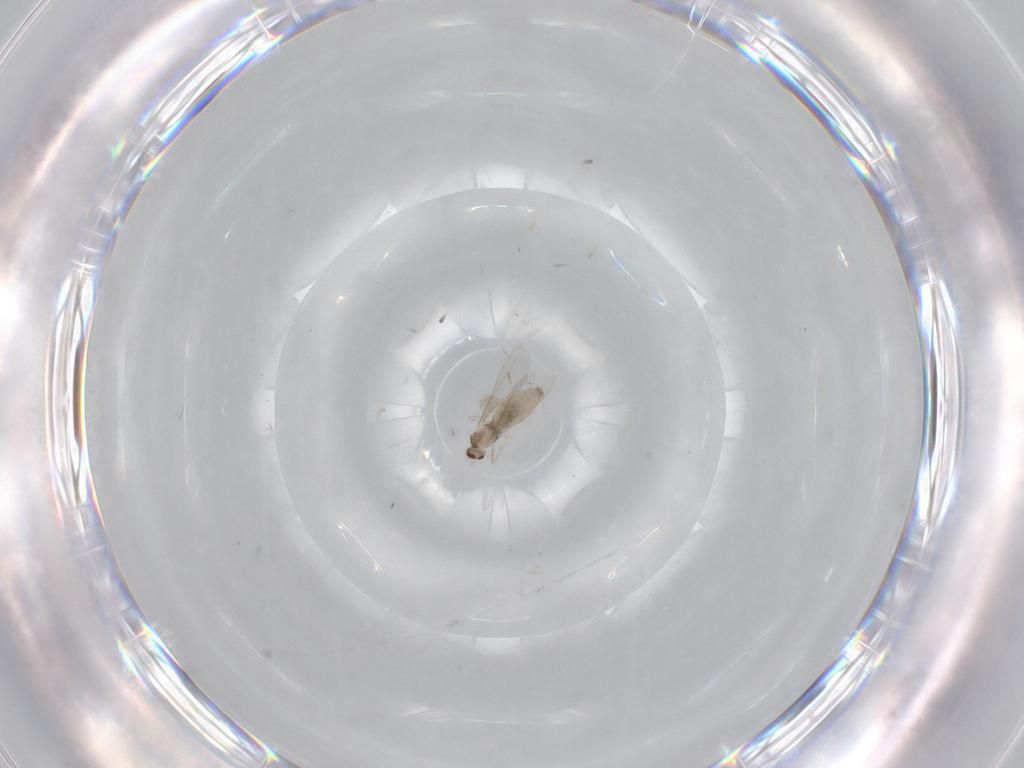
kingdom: Animalia
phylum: Arthropoda
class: Insecta
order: Diptera
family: Cecidomyiidae
